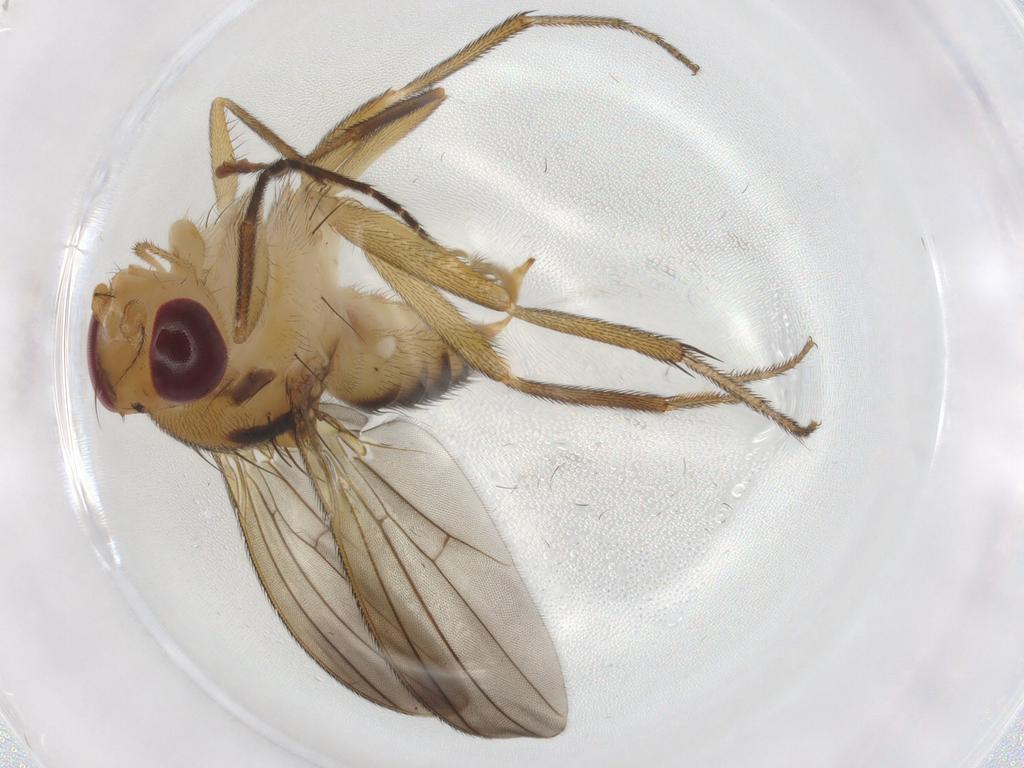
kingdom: Animalia
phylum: Arthropoda
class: Insecta
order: Diptera
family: Clusiidae
